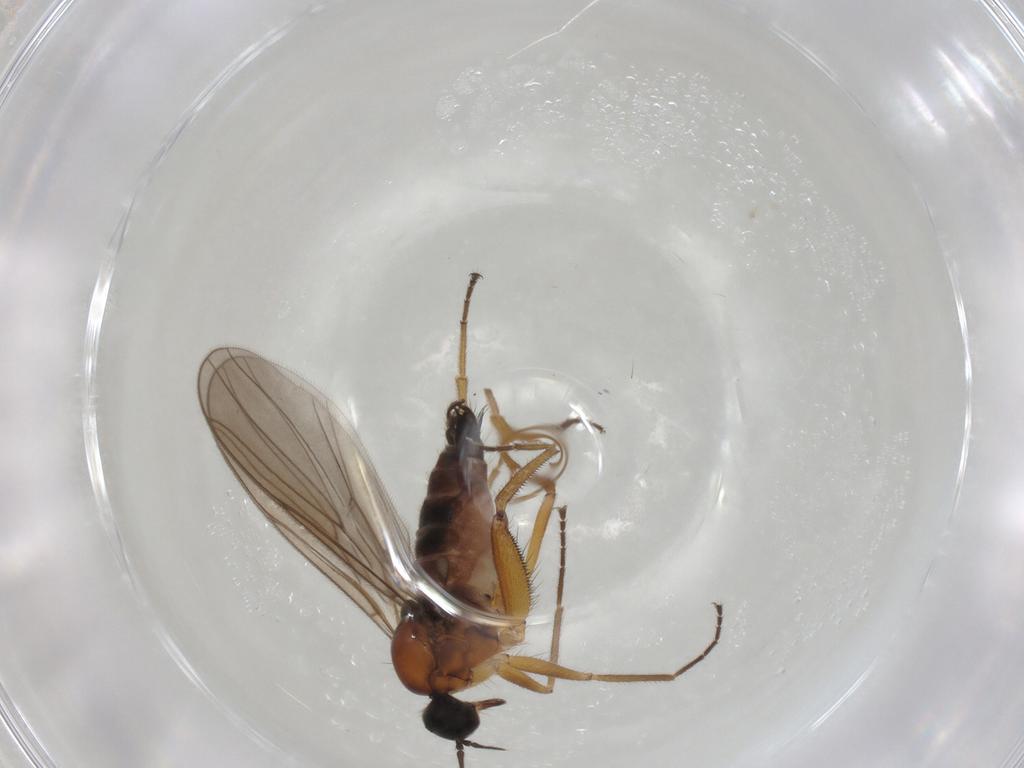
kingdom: Animalia
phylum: Arthropoda
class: Insecta
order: Diptera
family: Hybotidae
